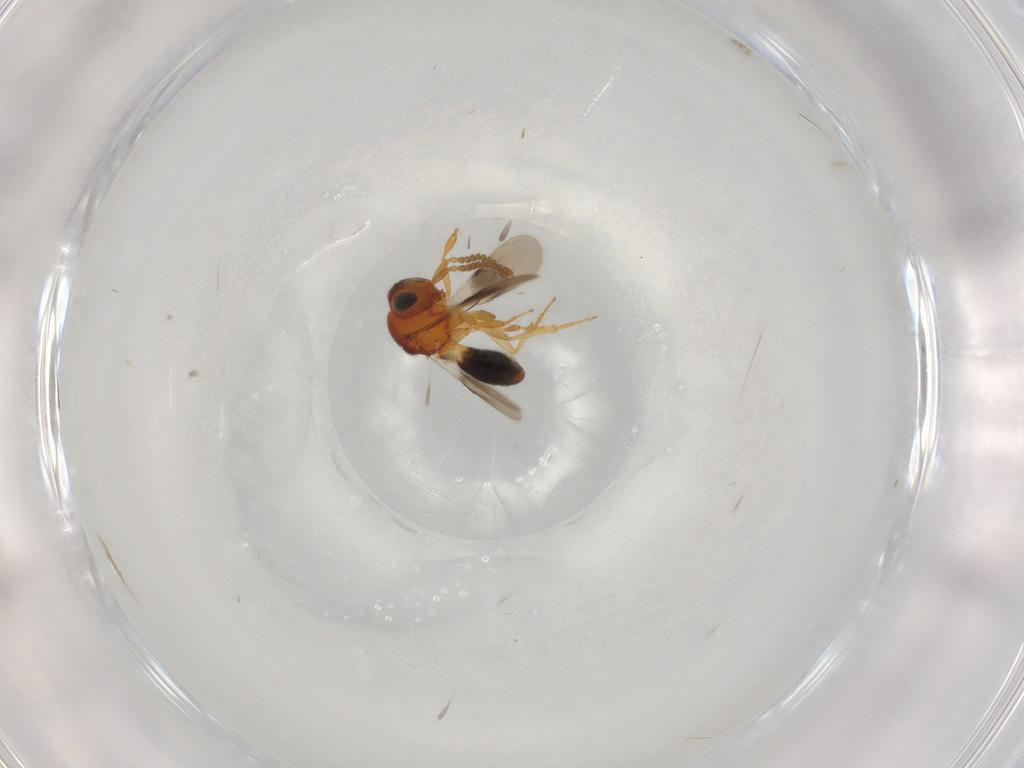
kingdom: Animalia
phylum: Arthropoda
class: Insecta
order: Hymenoptera
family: Scelionidae
